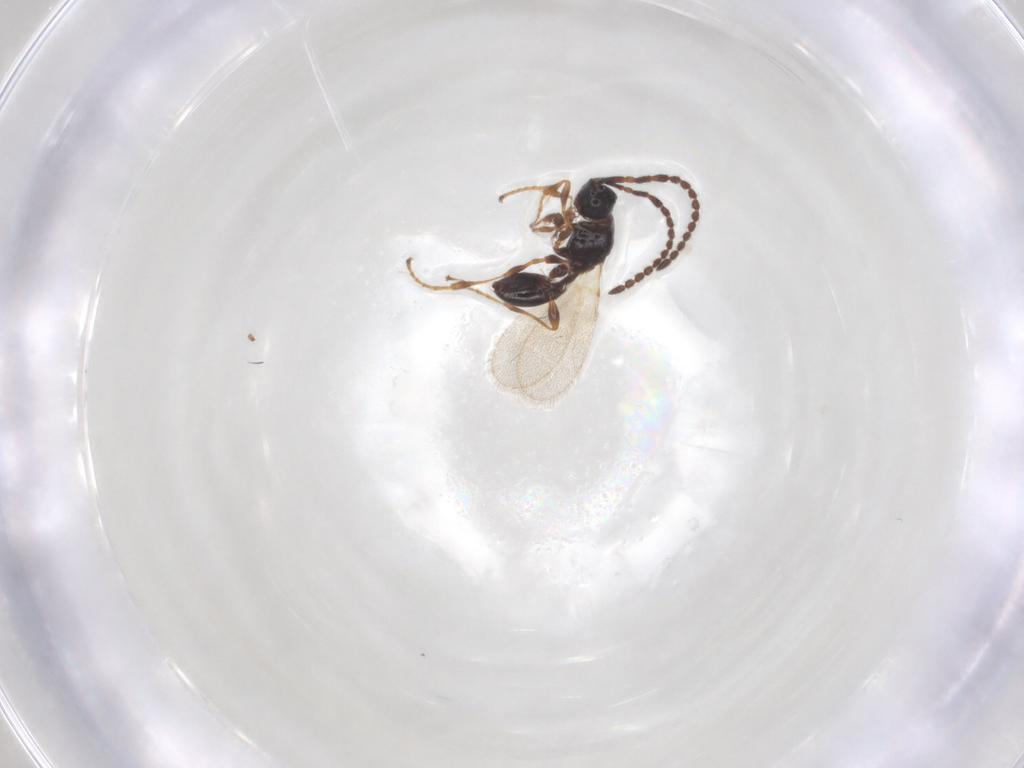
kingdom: Animalia
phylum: Arthropoda
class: Insecta
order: Hymenoptera
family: Diapriidae
